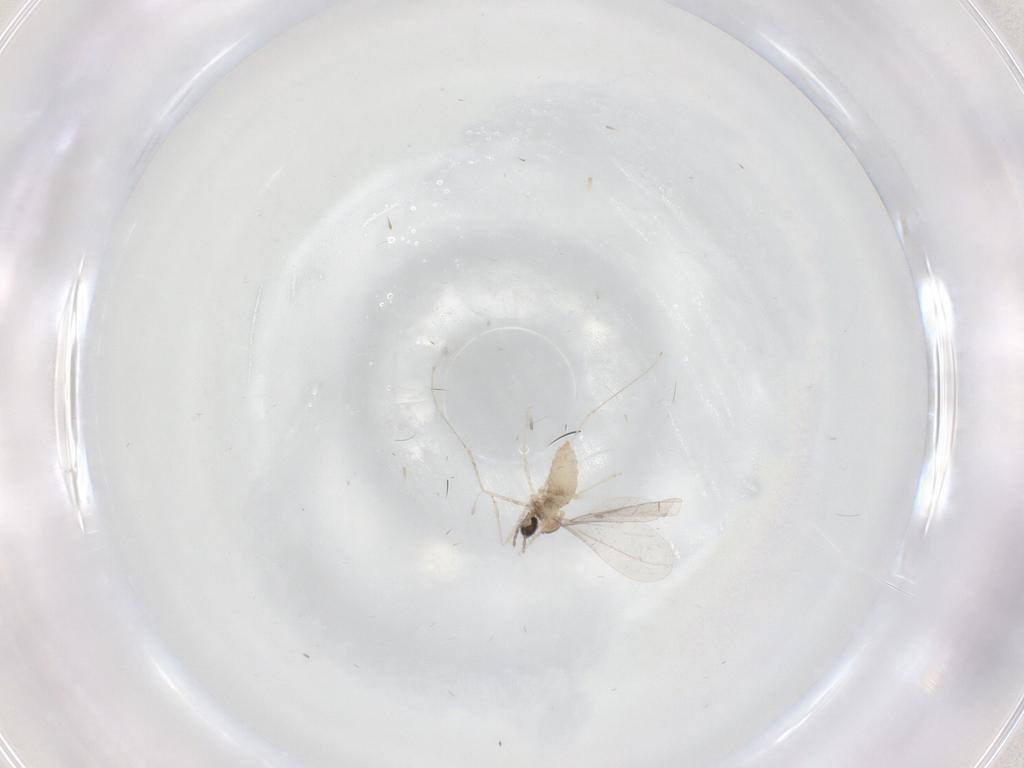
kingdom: Animalia
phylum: Arthropoda
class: Insecta
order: Diptera
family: Cecidomyiidae
